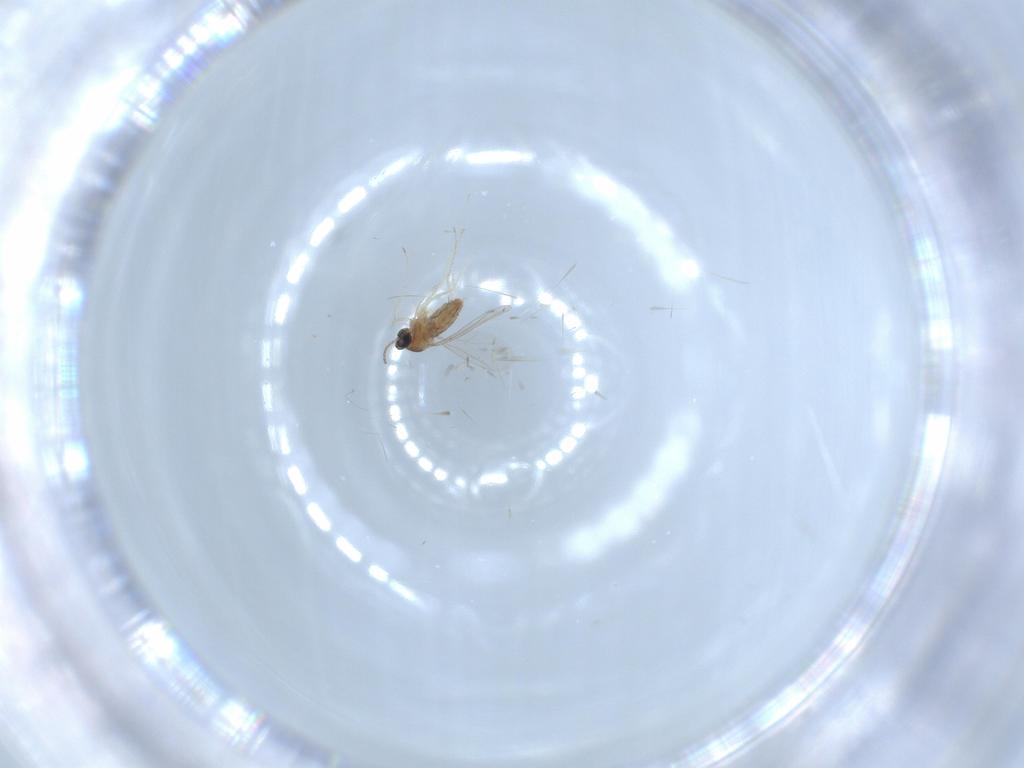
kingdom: Animalia
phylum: Arthropoda
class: Insecta
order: Diptera
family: Cecidomyiidae
